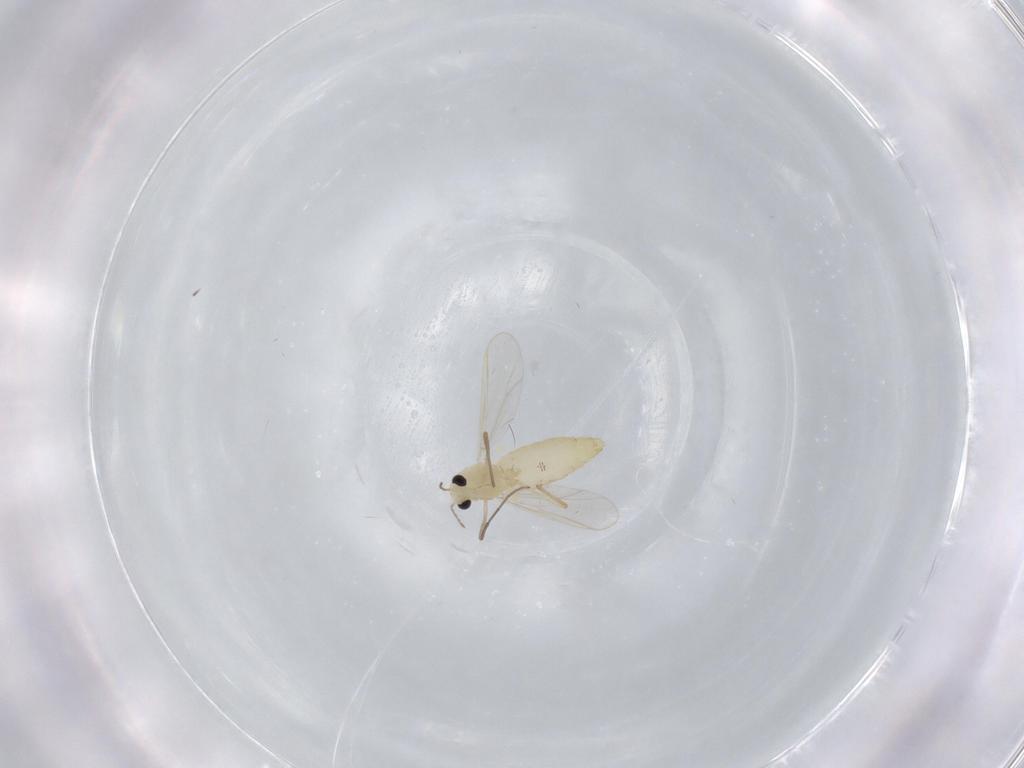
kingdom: Animalia
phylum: Arthropoda
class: Insecta
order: Diptera
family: Chironomidae
